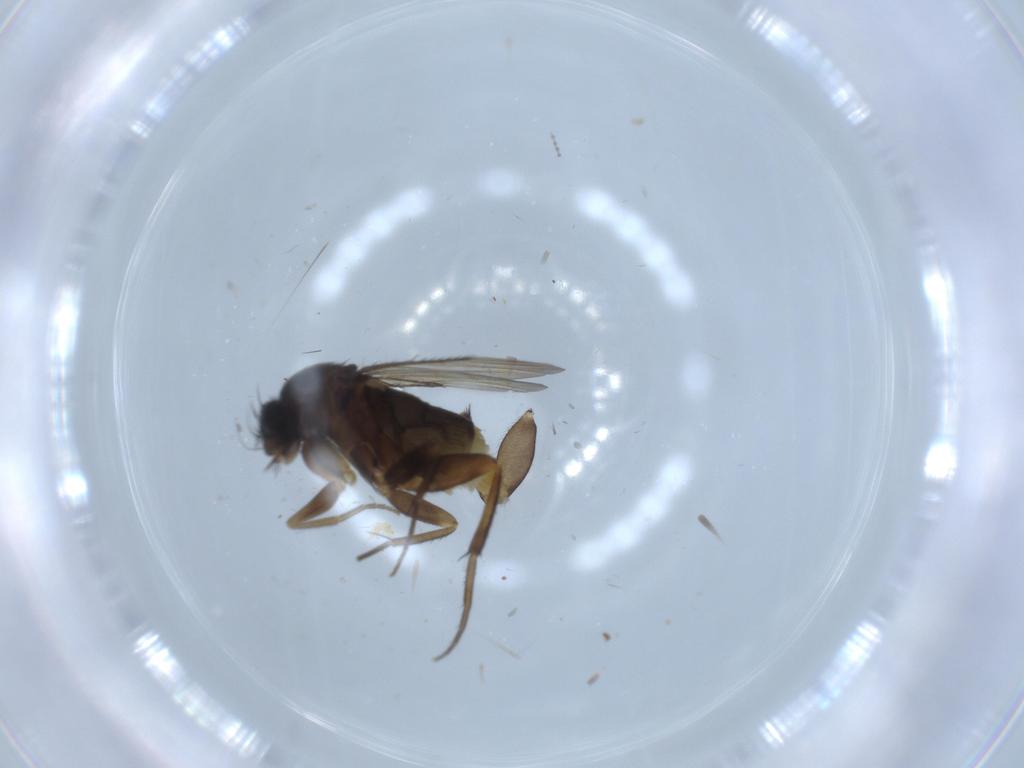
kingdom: Animalia
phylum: Arthropoda
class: Insecta
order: Diptera
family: Phoridae
